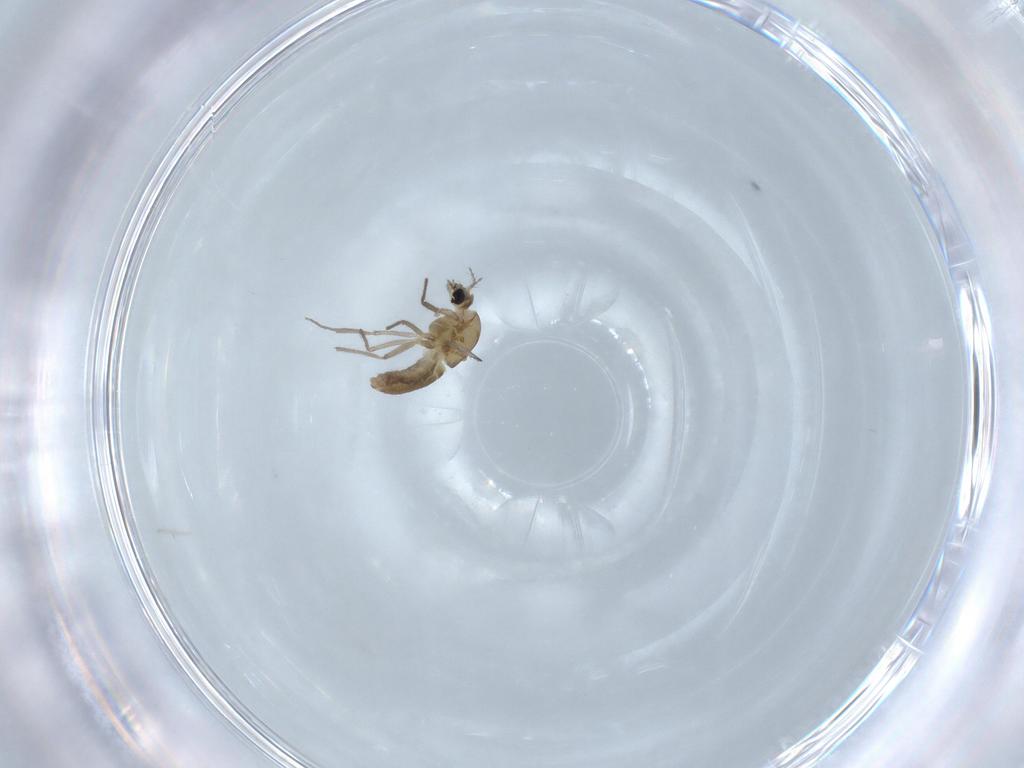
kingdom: Animalia
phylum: Arthropoda
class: Insecta
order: Diptera
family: Chironomidae
